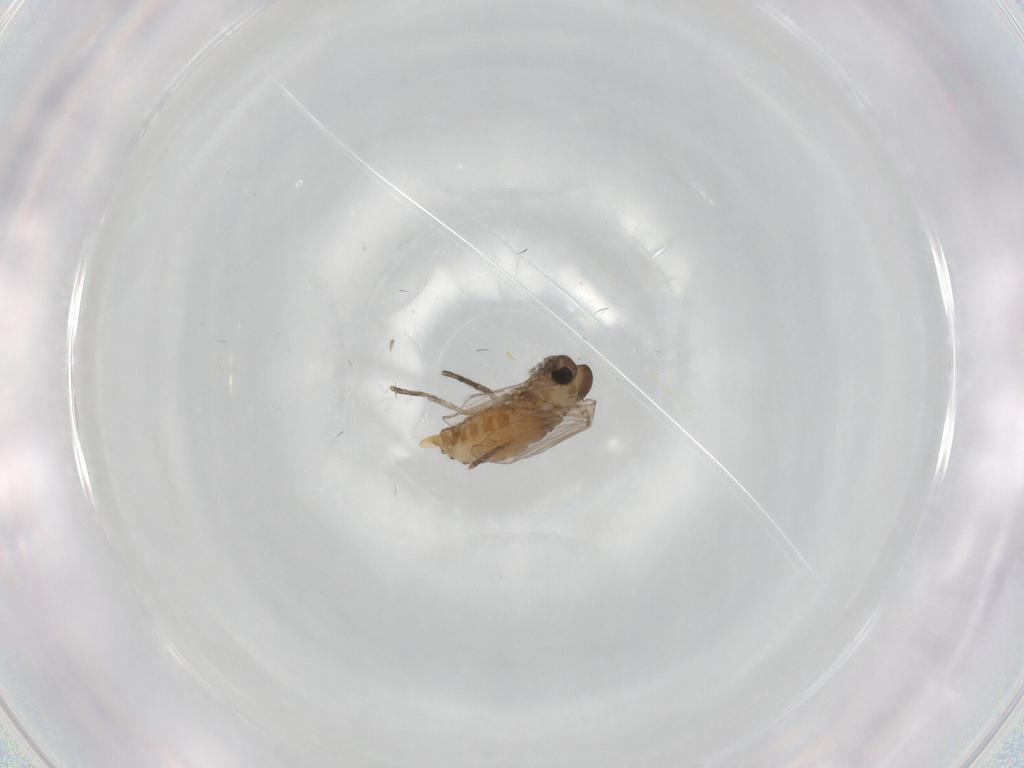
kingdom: Animalia
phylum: Arthropoda
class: Insecta
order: Diptera
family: Psychodidae
